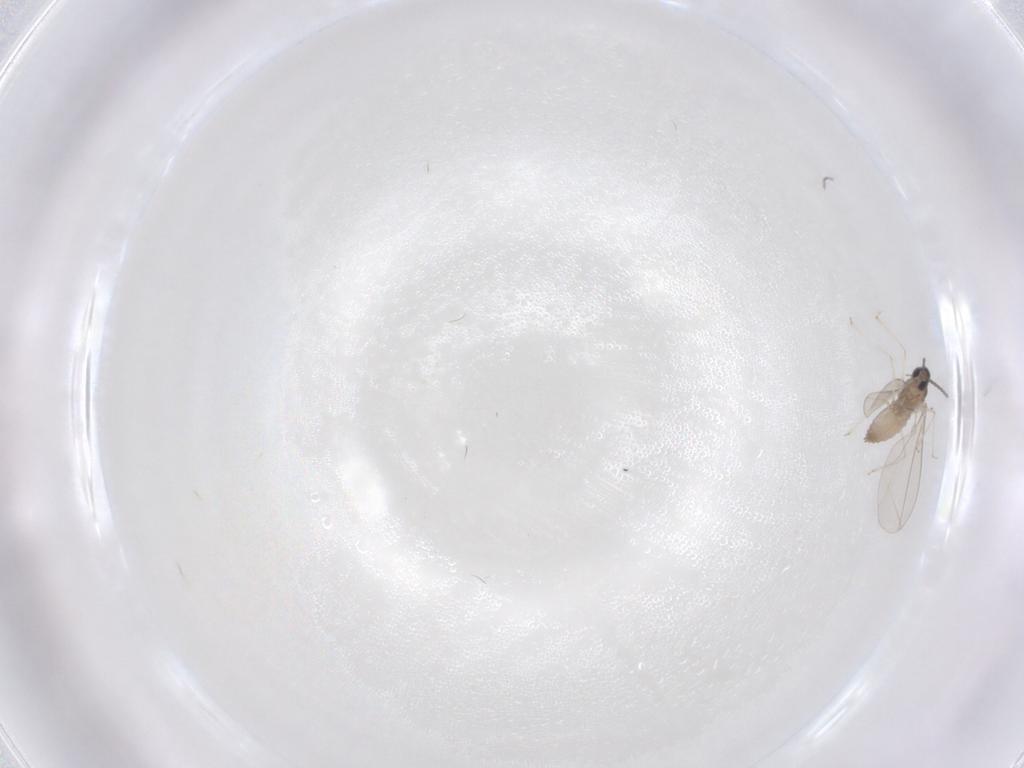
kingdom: Animalia
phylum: Arthropoda
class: Insecta
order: Diptera
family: Cecidomyiidae
